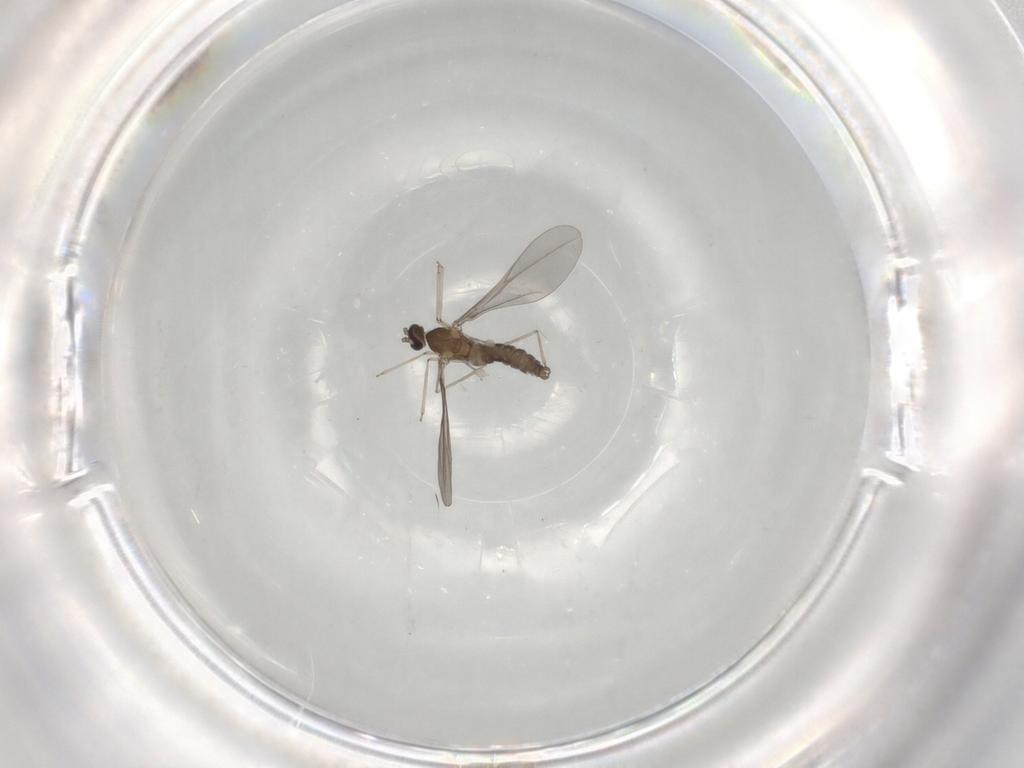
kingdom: Animalia
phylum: Arthropoda
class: Insecta
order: Diptera
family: Cecidomyiidae
